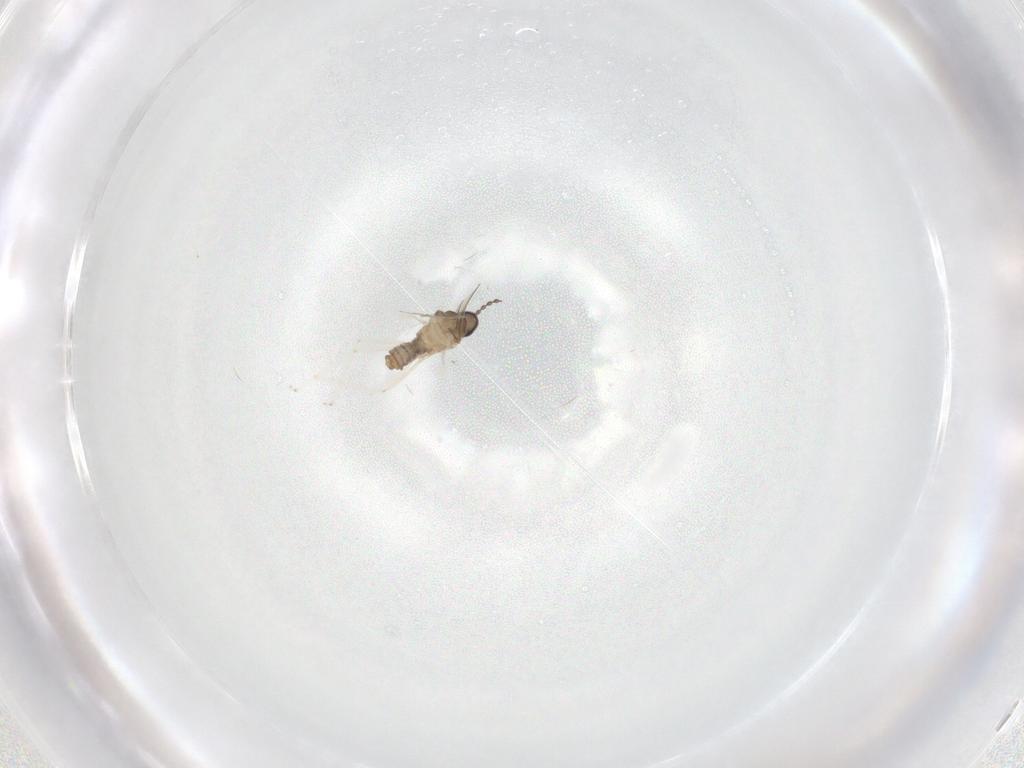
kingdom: Animalia
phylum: Arthropoda
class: Insecta
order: Diptera
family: Cecidomyiidae
